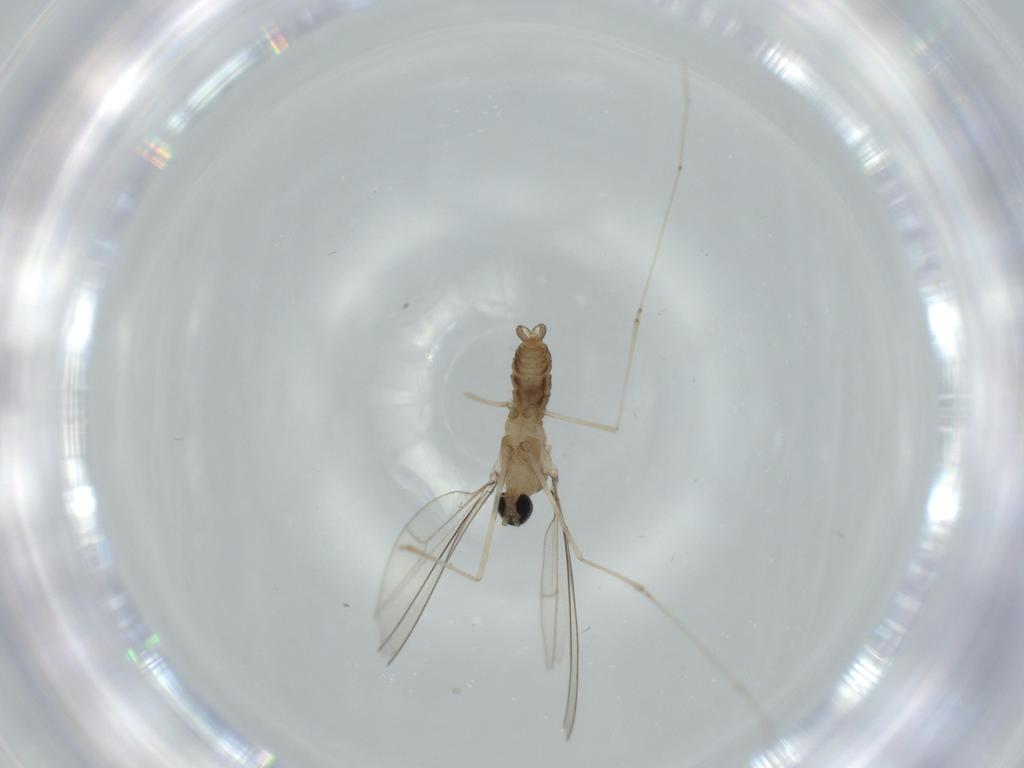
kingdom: Animalia
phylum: Arthropoda
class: Insecta
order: Diptera
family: Cecidomyiidae
